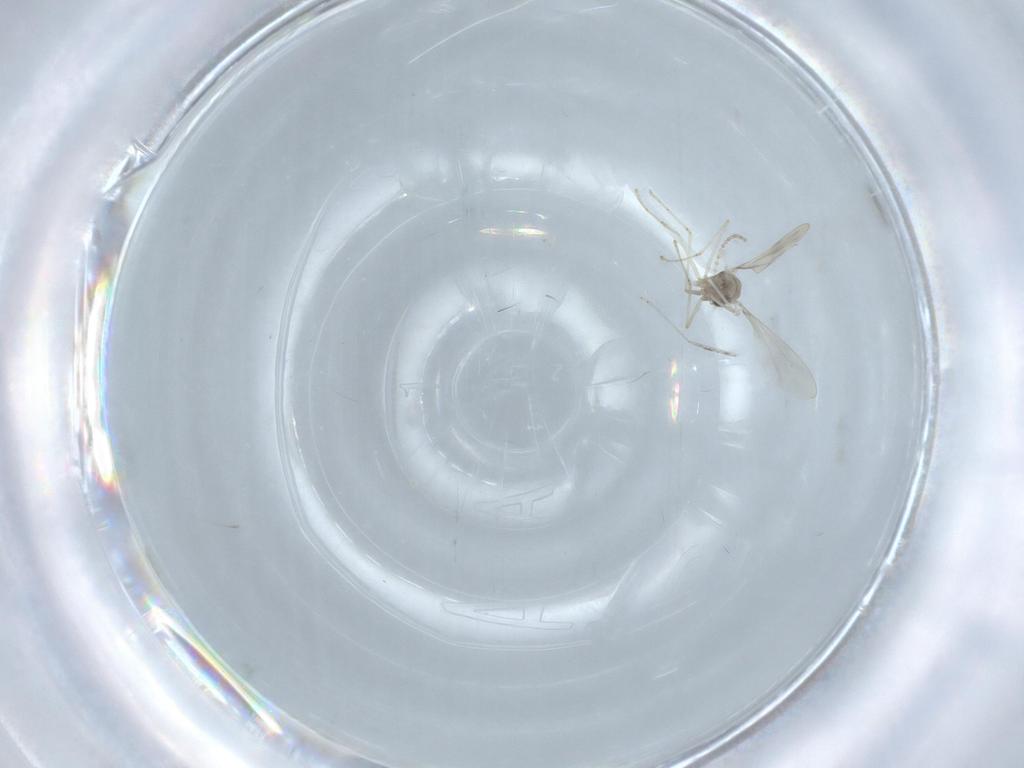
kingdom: Animalia
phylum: Arthropoda
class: Insecta
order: Diptera
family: Cecidomyiidae
